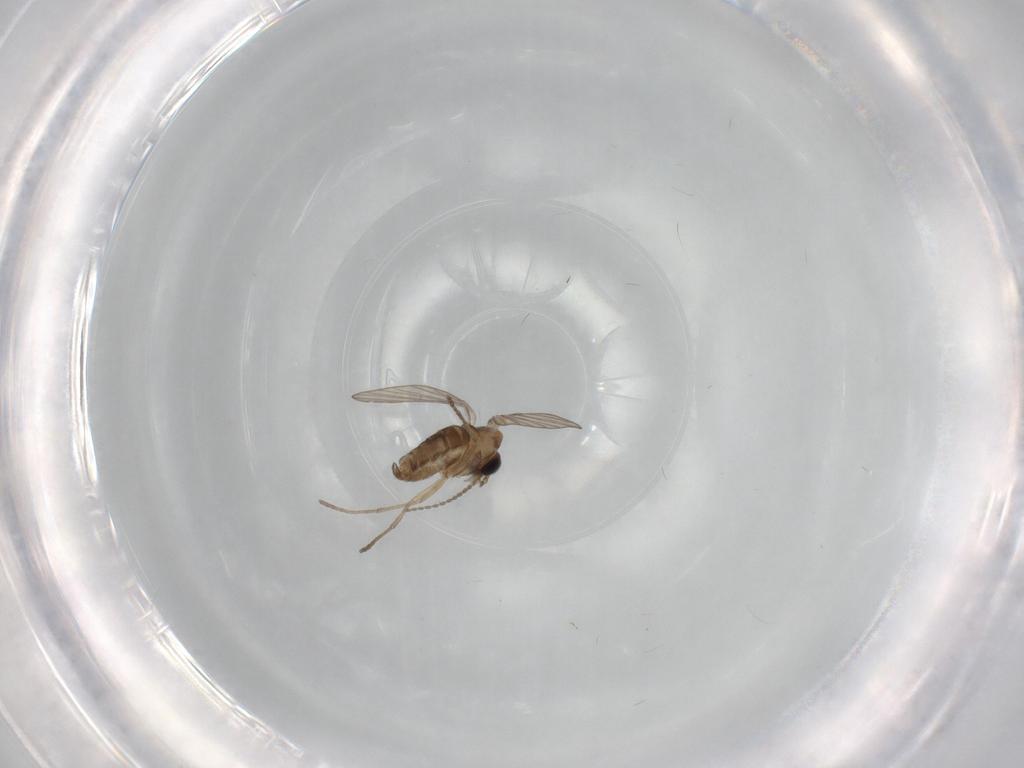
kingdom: Animalia
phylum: Arthropoda
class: Insecta
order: Diptera
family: Psychodidae
